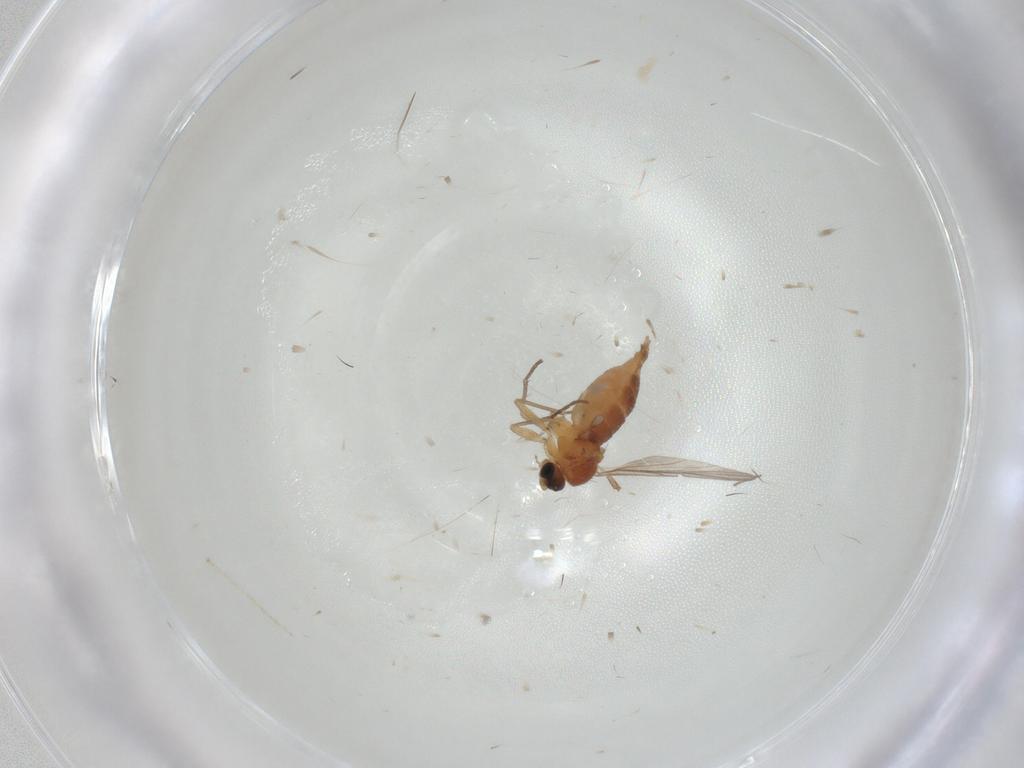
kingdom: Animalia
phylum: Arthropoda
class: Insecta
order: Diptera
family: Sciaridae
